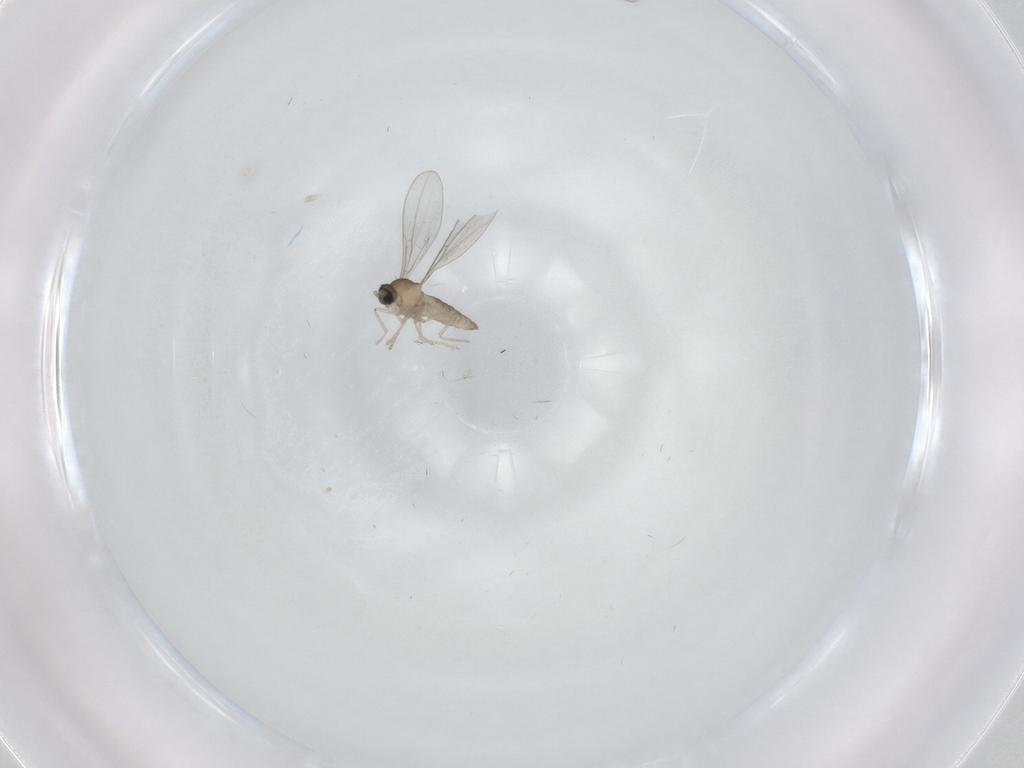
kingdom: Animalia
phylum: Arthropoda
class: Insecta
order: Diptera
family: Cecidomyiidae
